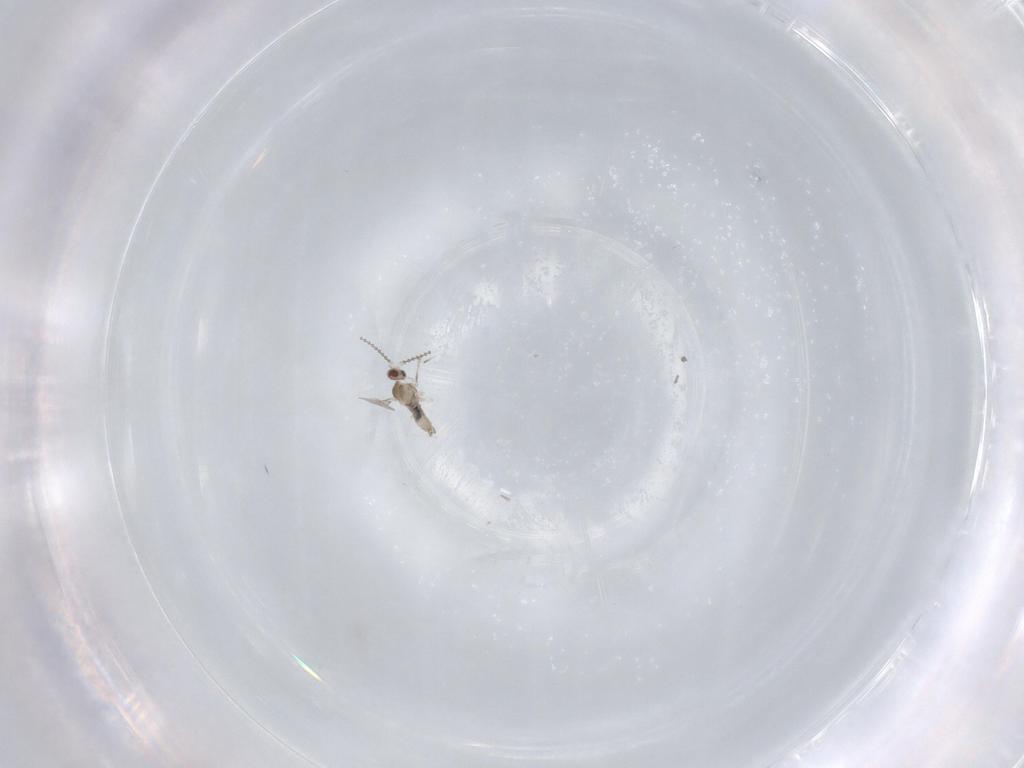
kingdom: Animalia
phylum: Arthropoda
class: Insecta
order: Diptera
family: Cecidomyiidae
